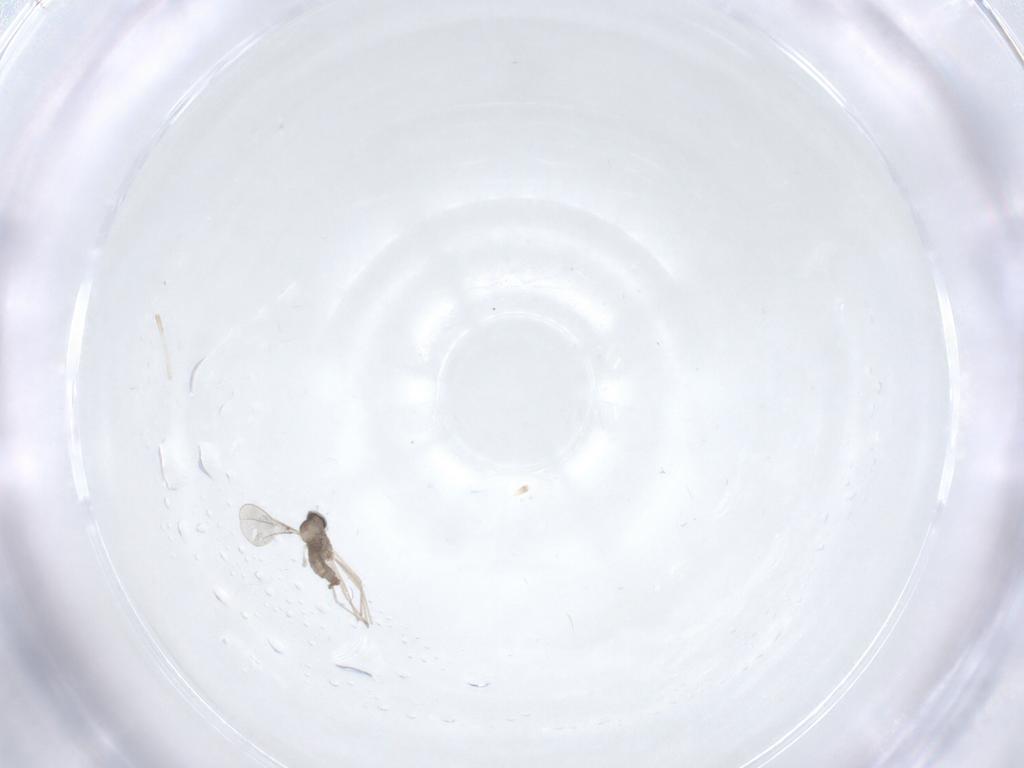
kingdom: Animalia
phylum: Arthropoda
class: Insecta
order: Diptera
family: Cecidomyiidae
